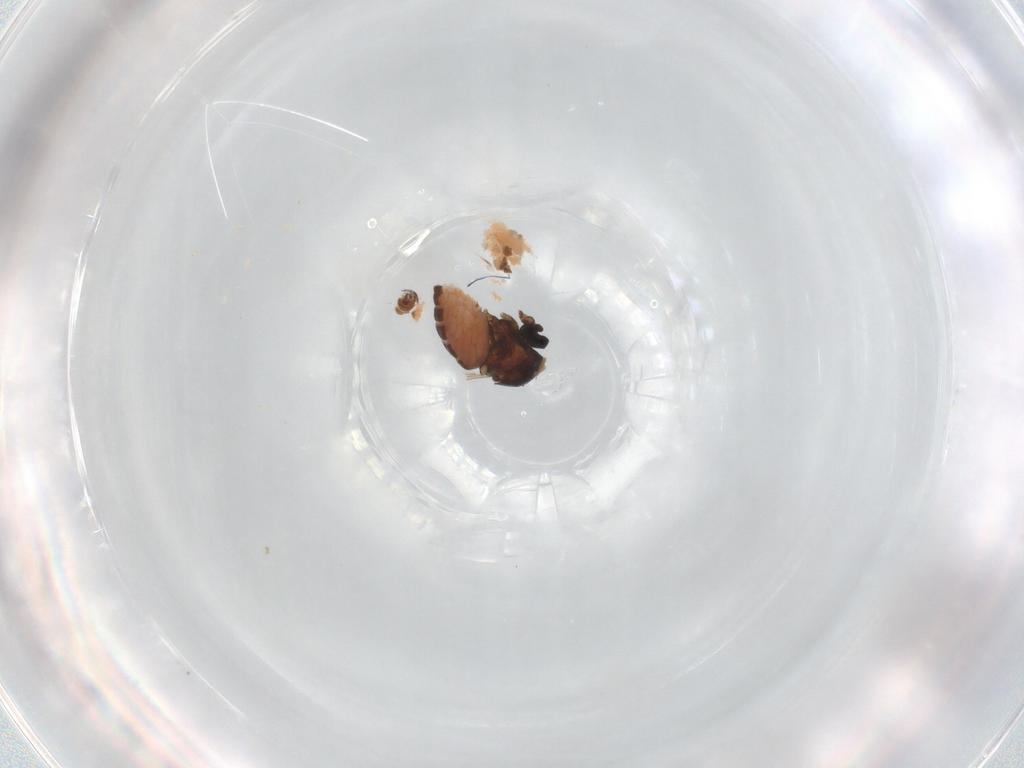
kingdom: Animalia
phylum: Arthropoda
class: Insecta
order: Diptera
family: Ceratopogonidae
